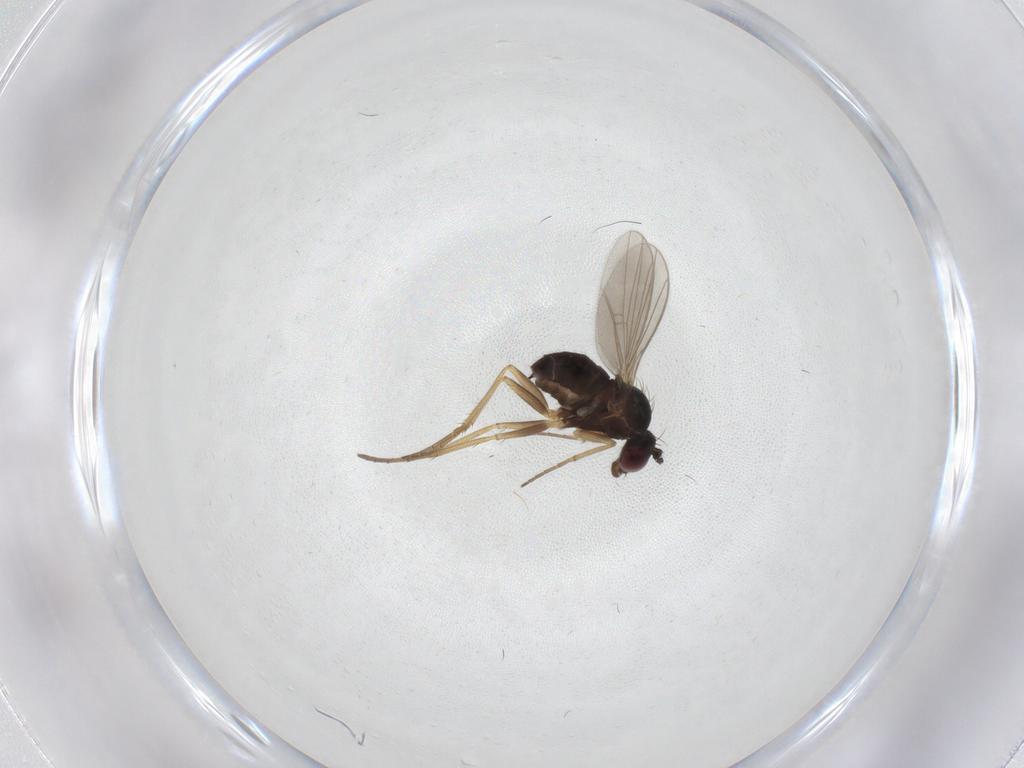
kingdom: Animalia
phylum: Arthropoda
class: Insecta
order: Diptera
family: Dolichopodidae
